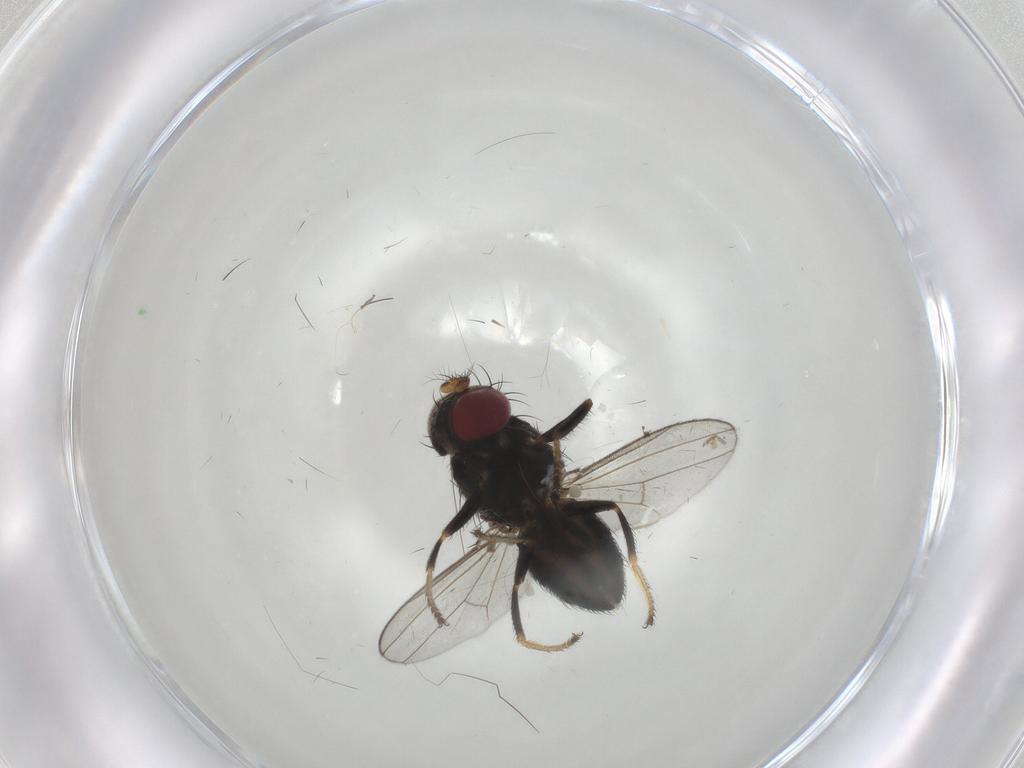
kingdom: Animalia
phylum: Arthropoda
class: Insecta
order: Diptera
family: Ephydridae
